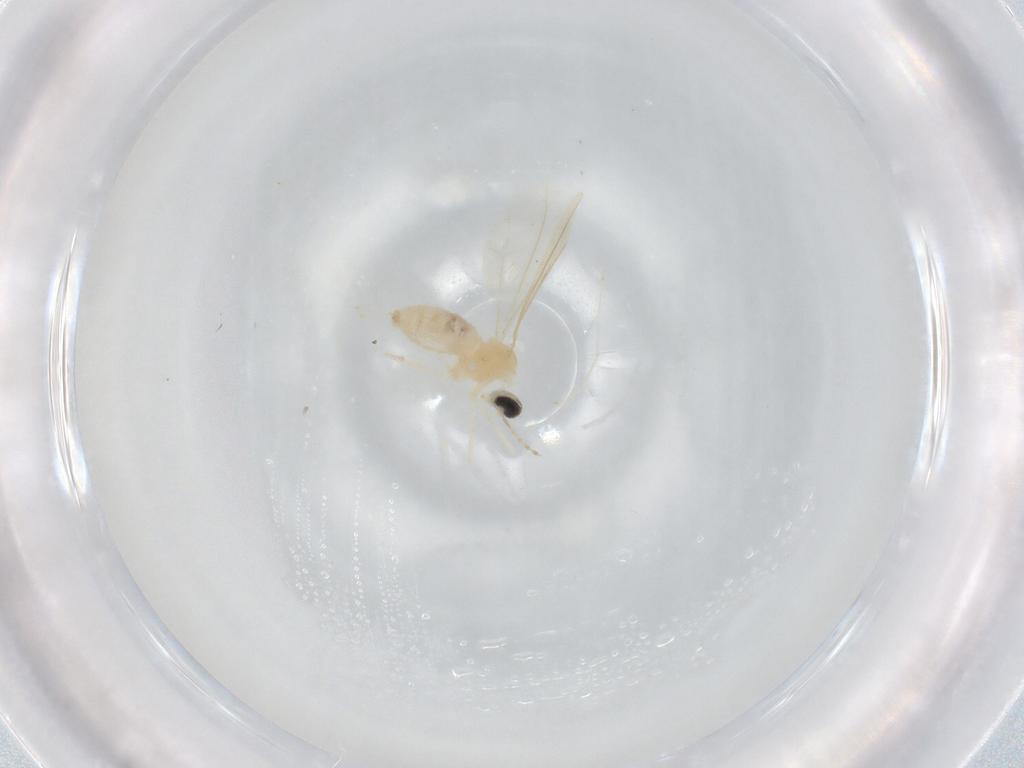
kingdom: Animalia
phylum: Arthropoda
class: Insecta
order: Diptera
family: Cecidomyiidae
